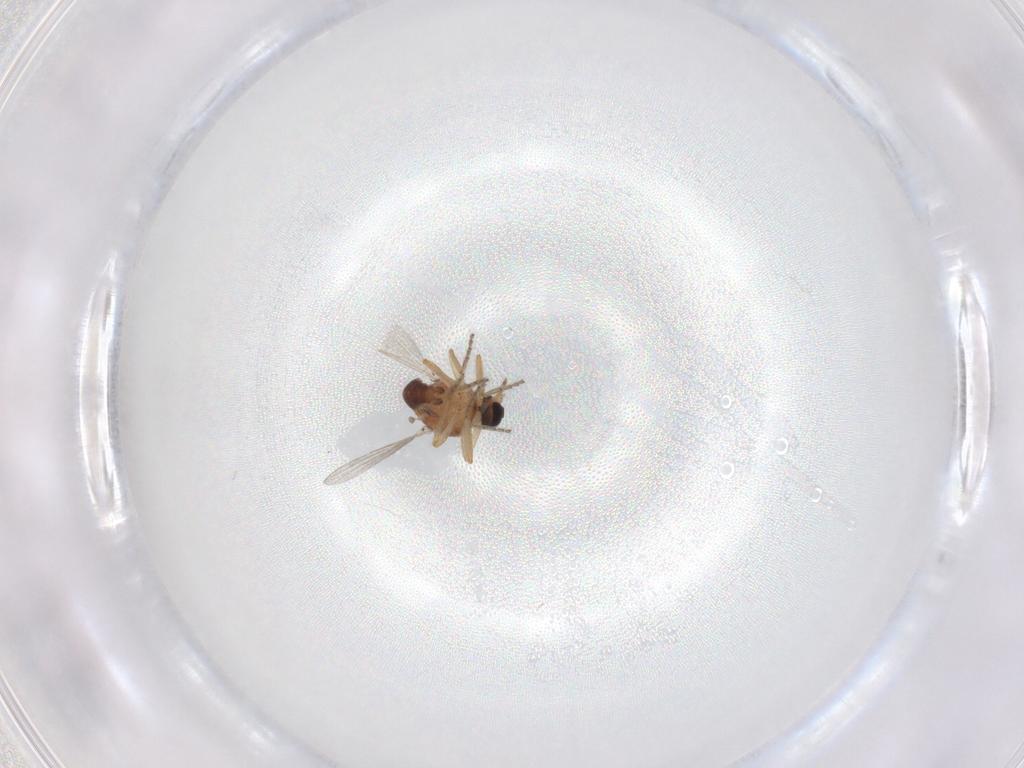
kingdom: Animalia
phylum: Arthropoda
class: Insecta
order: Diptera
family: Ceratopogonidae
